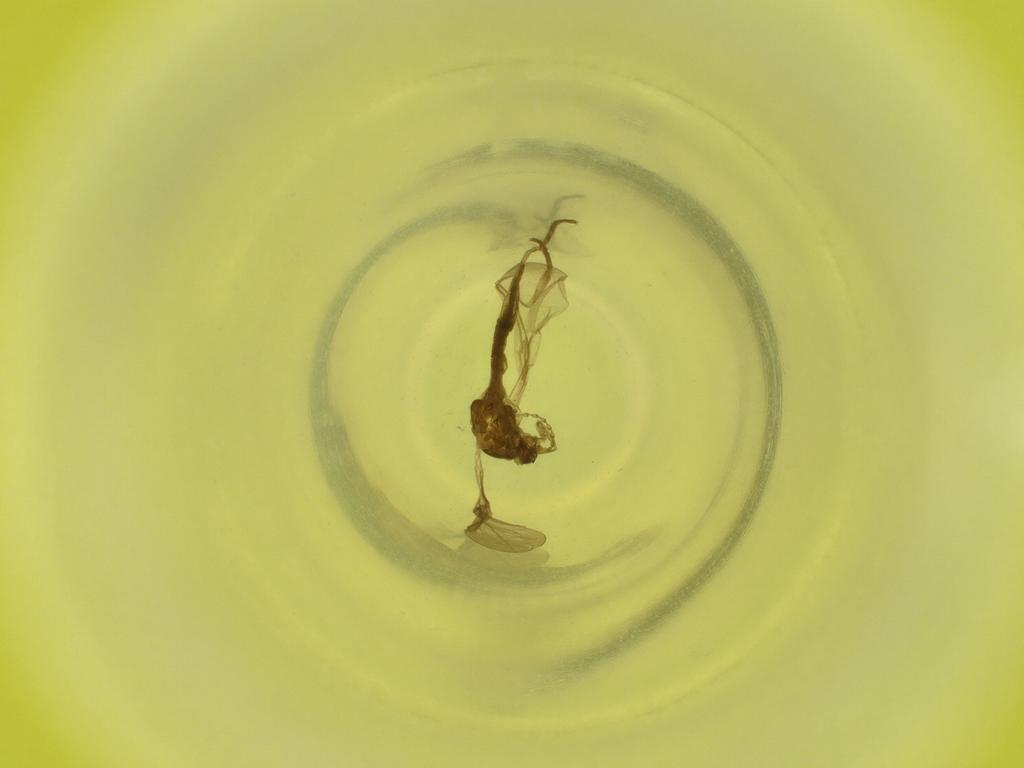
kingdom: Animalia
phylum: Arthropoda
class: Insecta
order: Diptera
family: Cecidomyiidae
